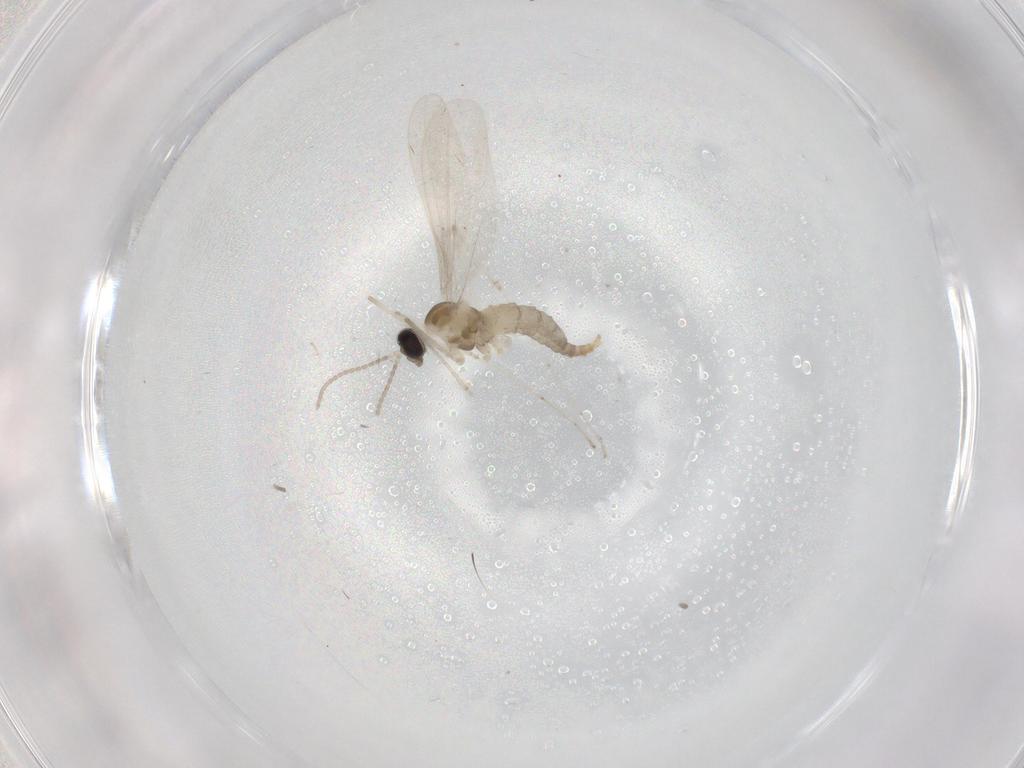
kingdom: Animalia
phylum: Arthropoda
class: Insecta
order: Diptera
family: Cecidomyiidae
